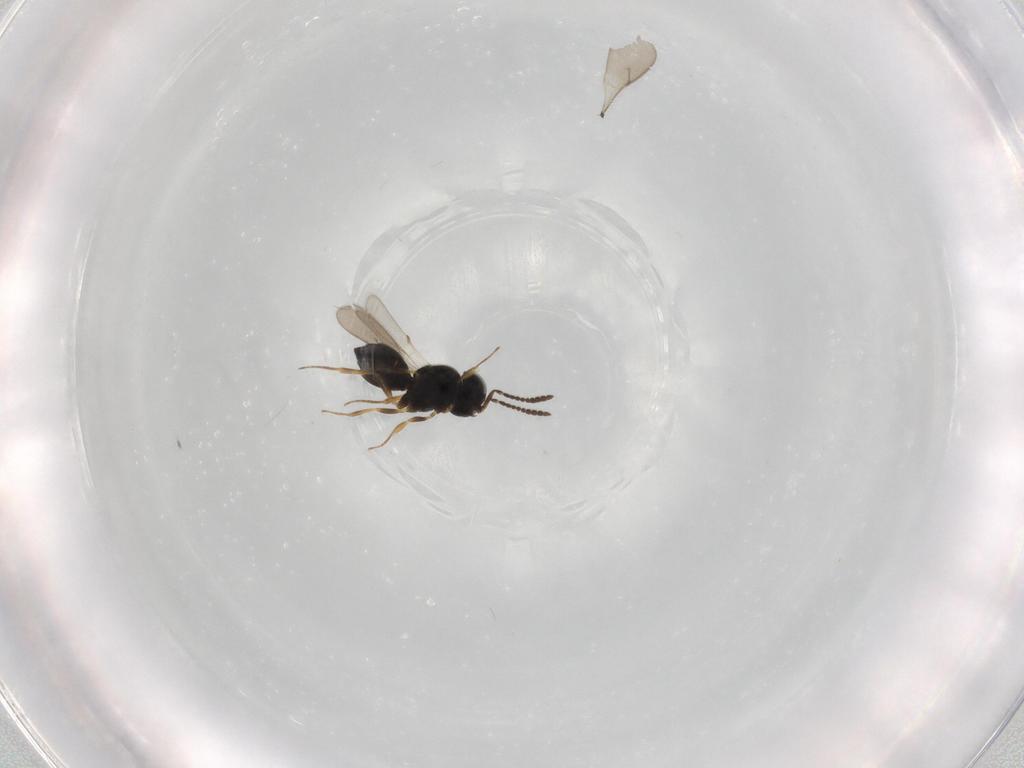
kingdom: Animalia
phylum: Arthropoda
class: Insecta
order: Hymenoptera
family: Scelionidae
